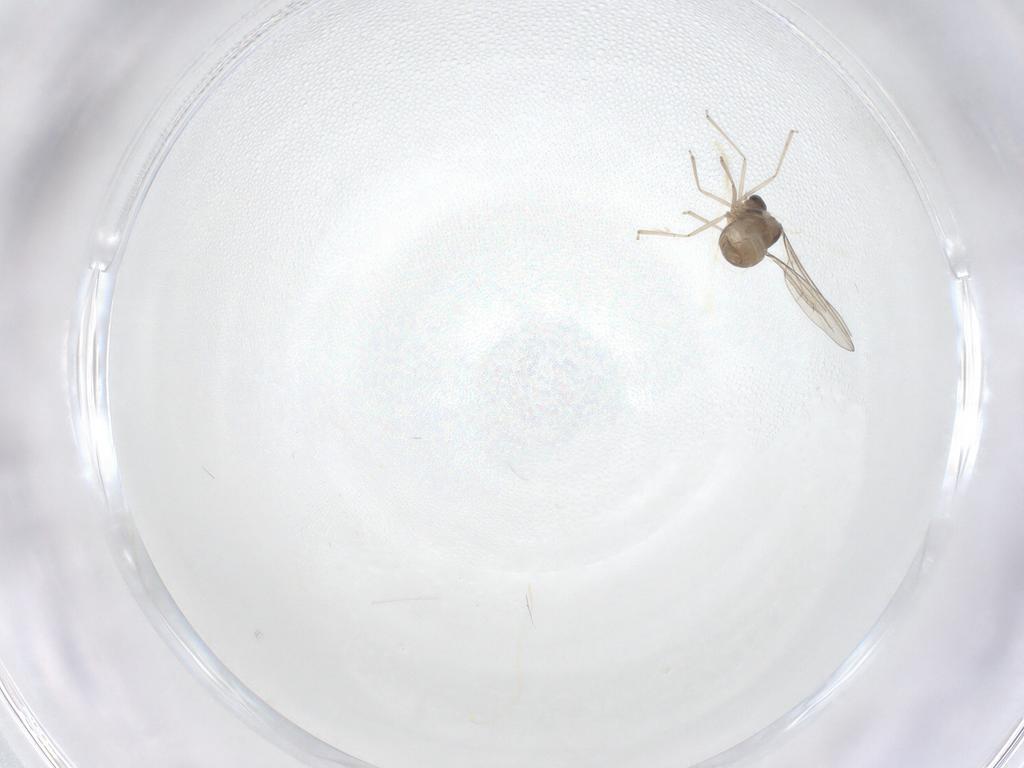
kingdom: Animalia
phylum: Arthropoda
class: Insecta
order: Diptera
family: Cecidomyiidae
